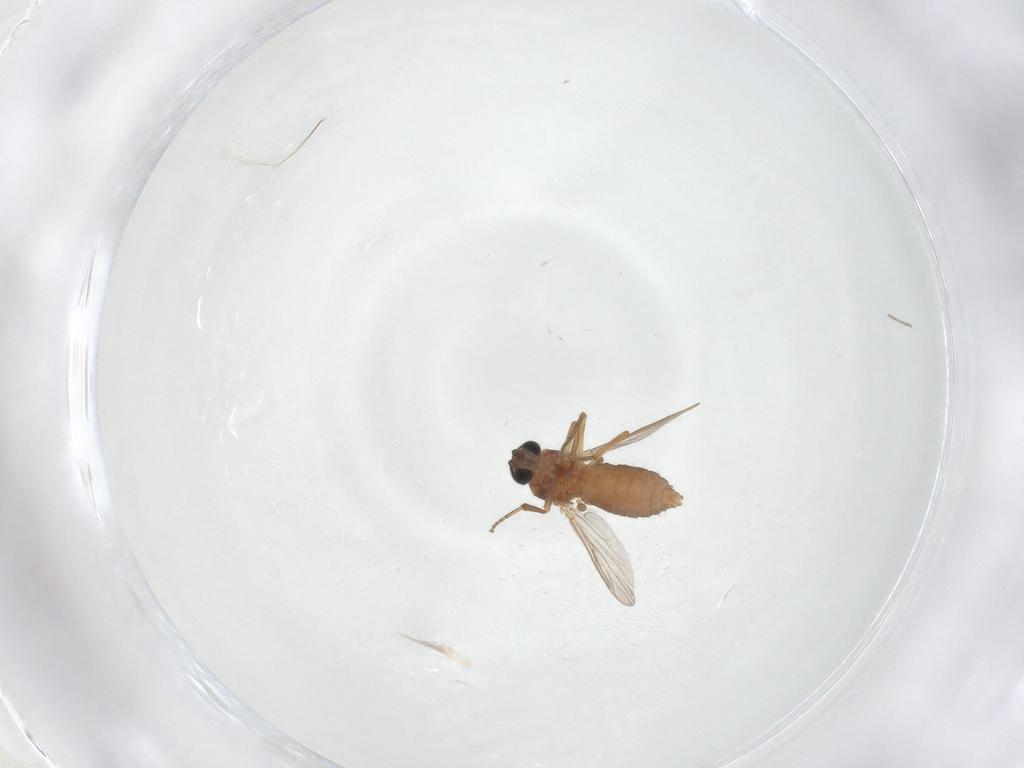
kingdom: Animalia
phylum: Arthropoda
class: Insecta
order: Diptera
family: Ceratopogonidae
